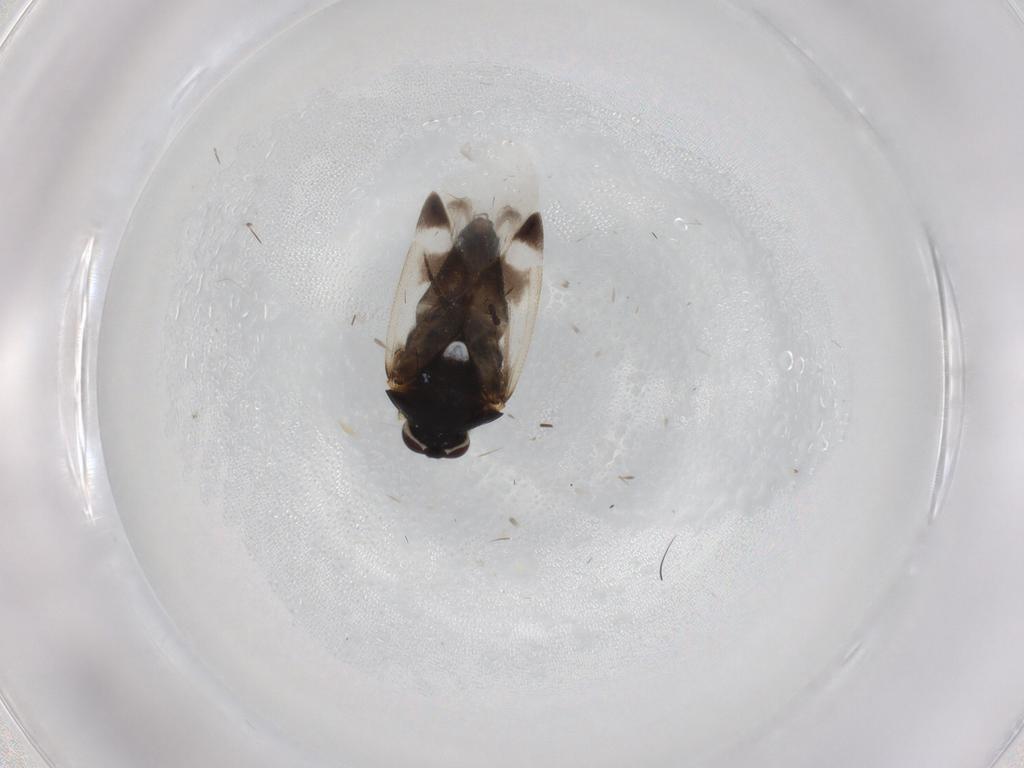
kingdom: Animalia
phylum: Arthropoda
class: Insecta
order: Hemiptera
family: Miridae
